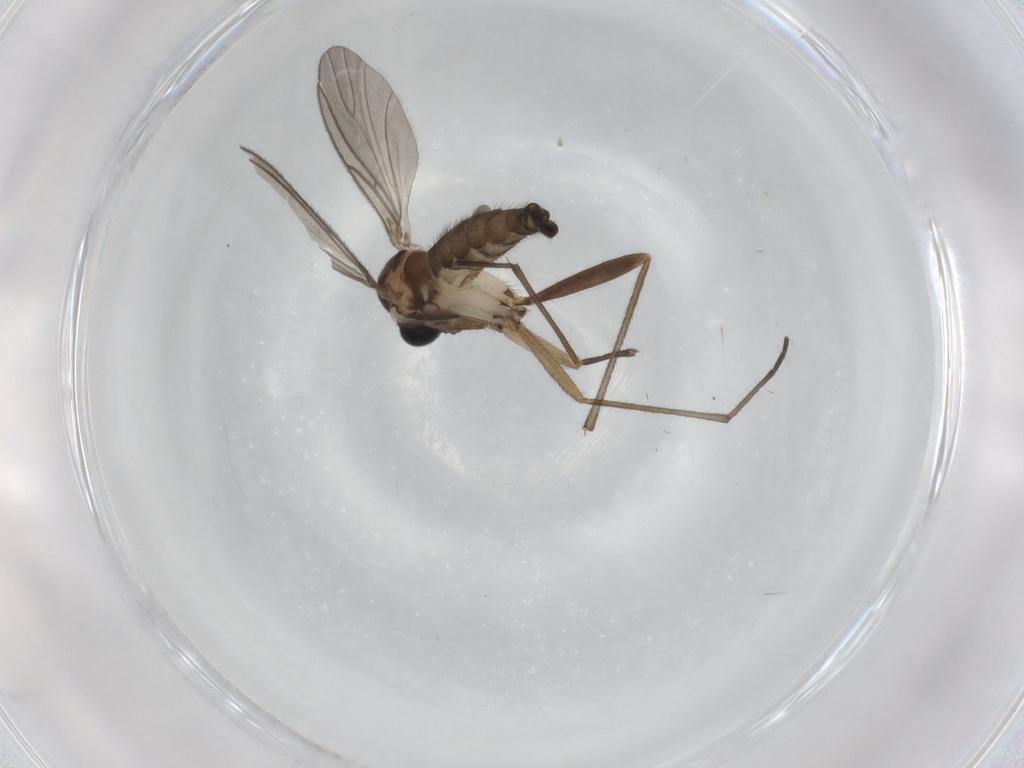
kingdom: Animalia
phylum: Arthropoda
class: Insecta
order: Diptera
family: Sciaridae
